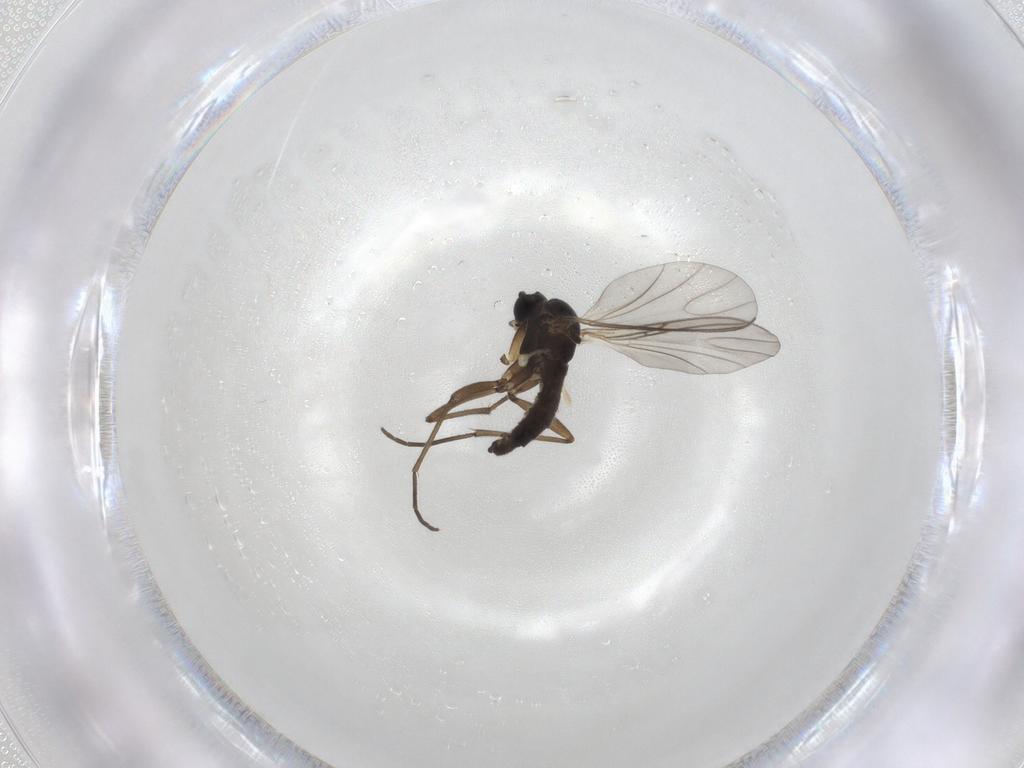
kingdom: Animalia
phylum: Arthropoda
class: Insecta
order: Diptera
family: Sciaridae
